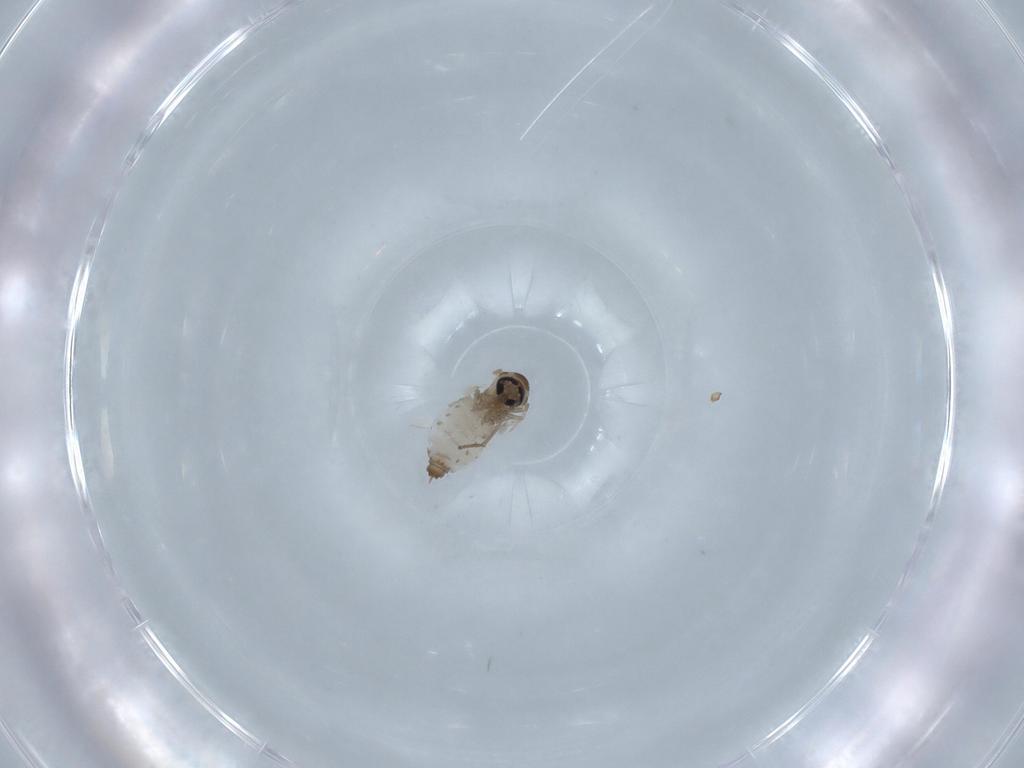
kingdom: Animalia
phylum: Arthropoda
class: Insecta
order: Diptera
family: Psychodidae
